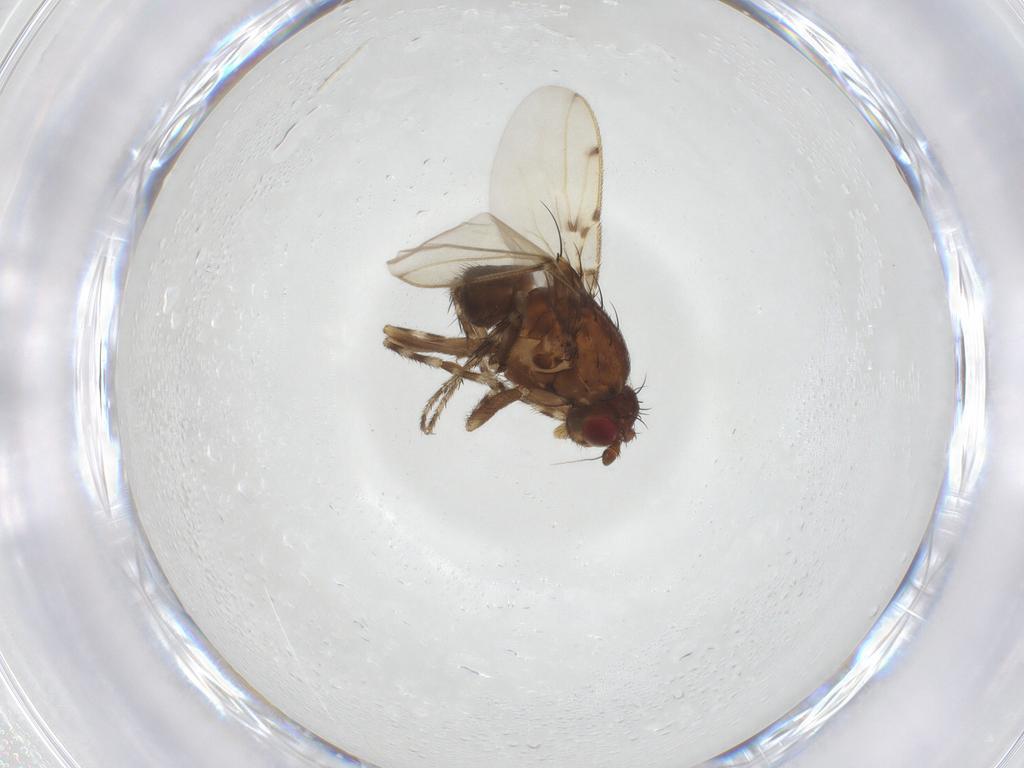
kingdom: Animalia
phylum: Arthropoda
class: Insecta
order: Diptera
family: Sphaeroceridae
